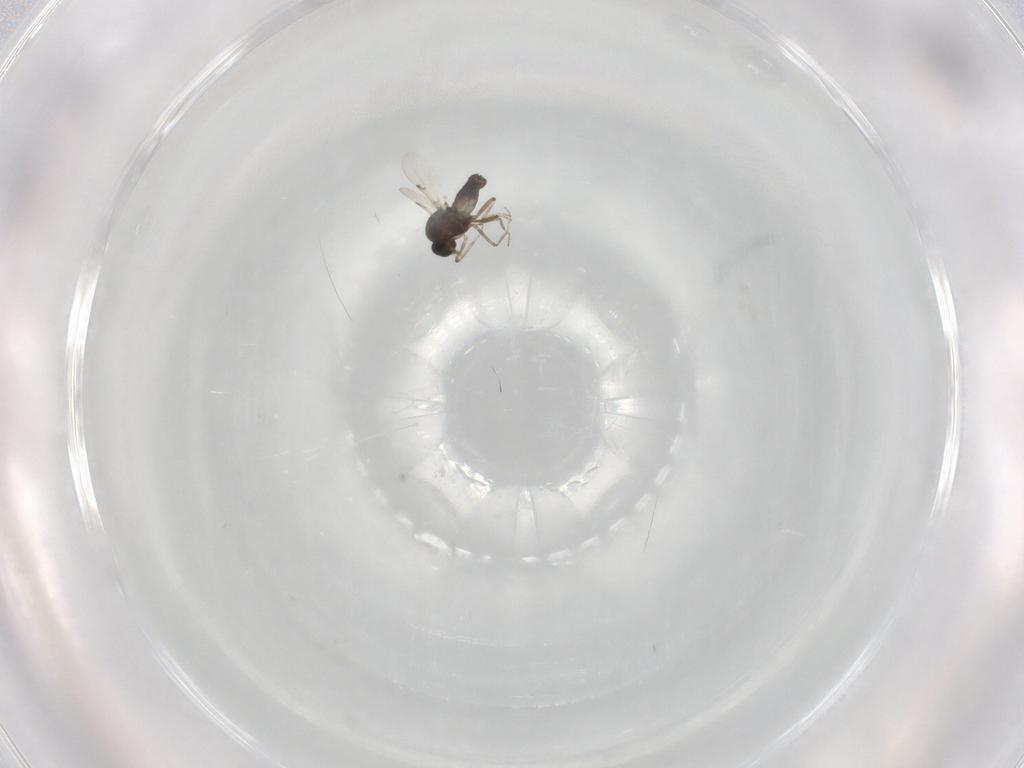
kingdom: Animalia
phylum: Arthropoda
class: Insecta
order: Diptera
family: Ceratopogonidae
